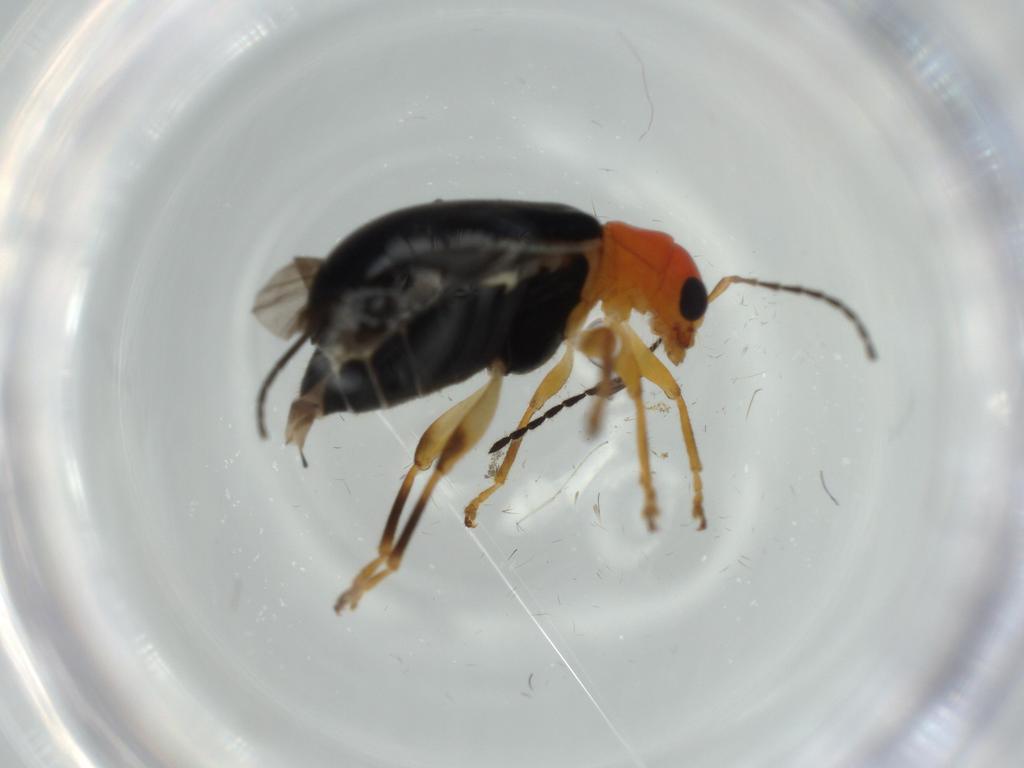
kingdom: Animalia
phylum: Arthropoda
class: Insecta
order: Coleoptera
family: Chrysomelidae
